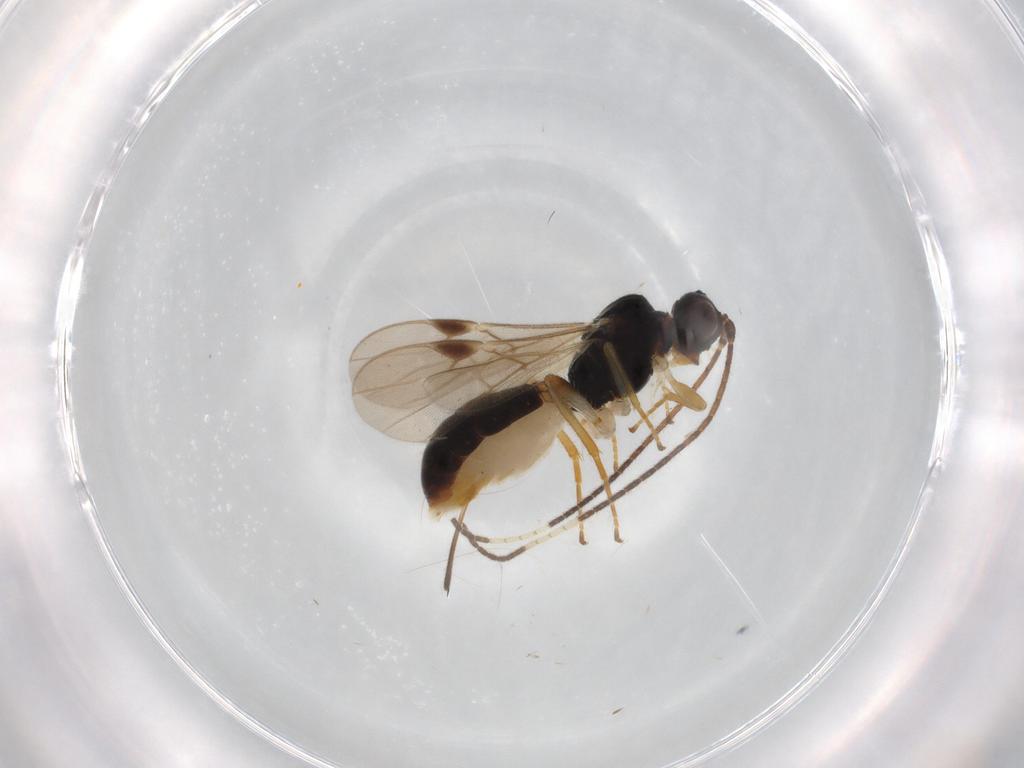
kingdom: Animalia
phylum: Arthropoda
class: Insecta
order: Hymenoptera
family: Braconidae
